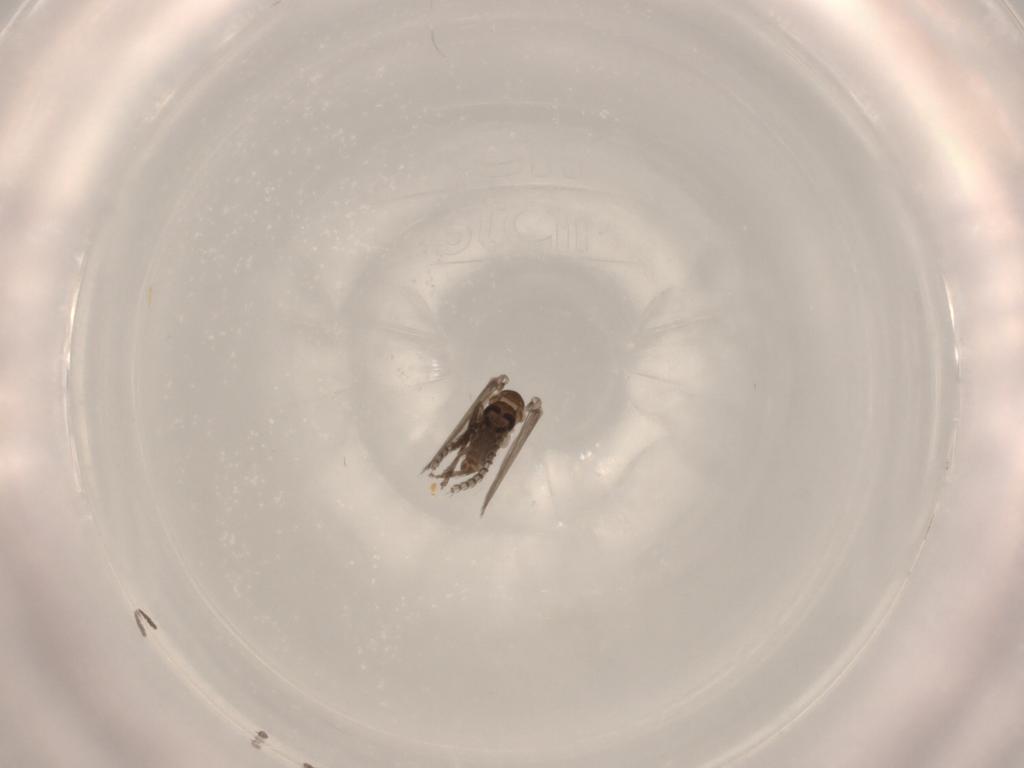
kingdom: Animalia
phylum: Arthropoda
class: Insecta
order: Diptera
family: Psychodidae
